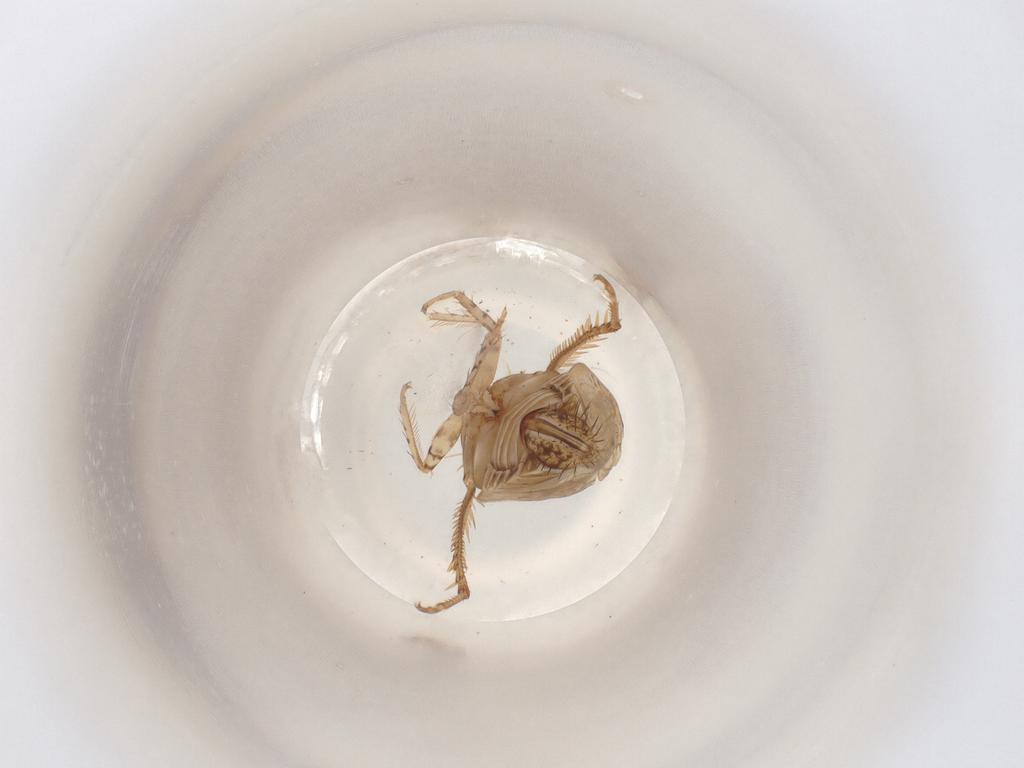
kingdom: Animalia
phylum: Arthropoda
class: Insecta
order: Hemiptera
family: Cicadellidae
